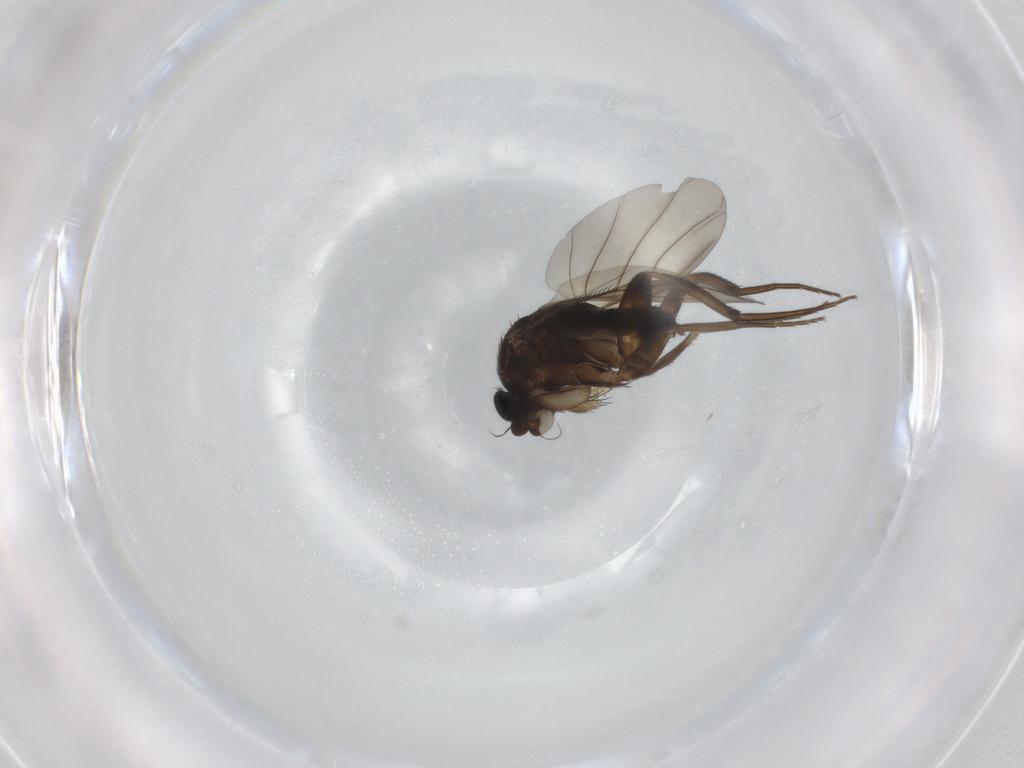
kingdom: Animalia
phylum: Arthropoda
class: Insecta
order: Diptera
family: Phoridae
